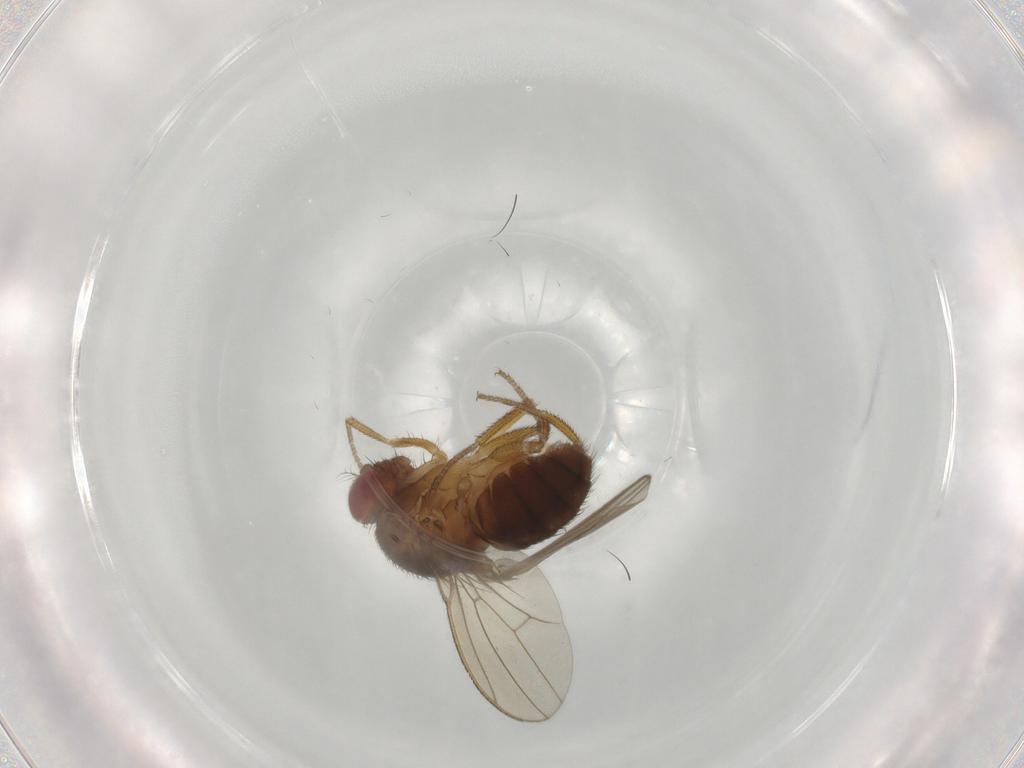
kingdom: Animalia
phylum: Arthropoda
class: Insecta
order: Diptera
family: Drosophilidae
